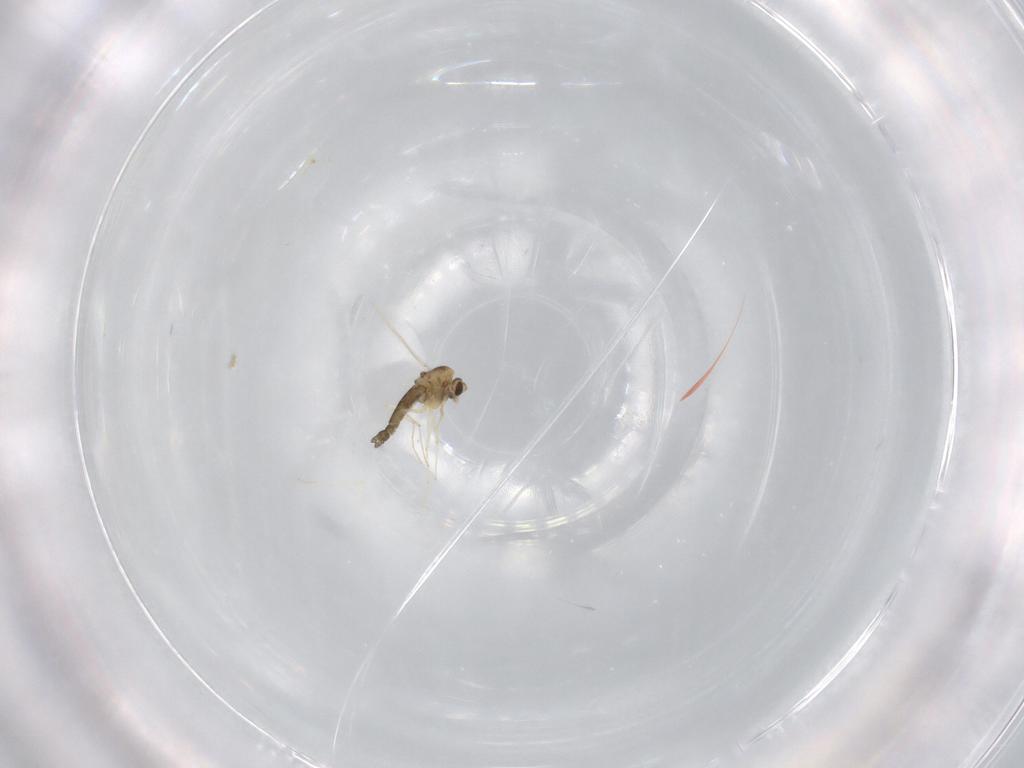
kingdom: Animalia
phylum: Arthropoda
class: Insecta
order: Diptera
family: Chironomidae
